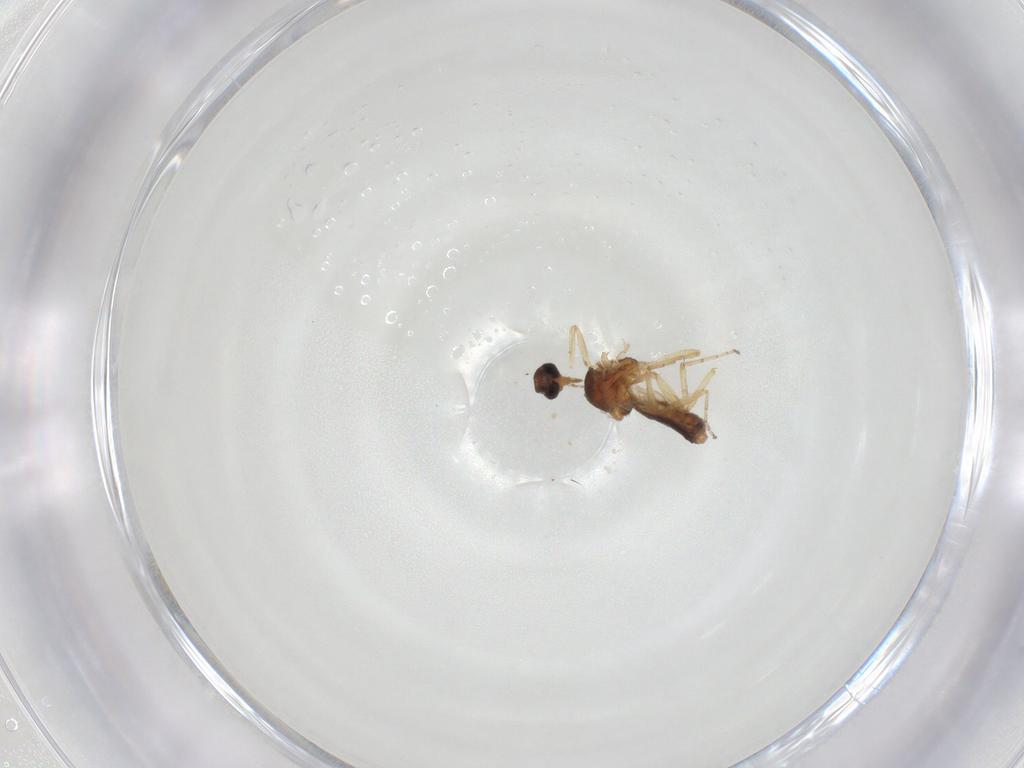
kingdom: Animalia
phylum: Arthropoda
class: Insecta
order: Diptera
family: Ceratopogonidae
